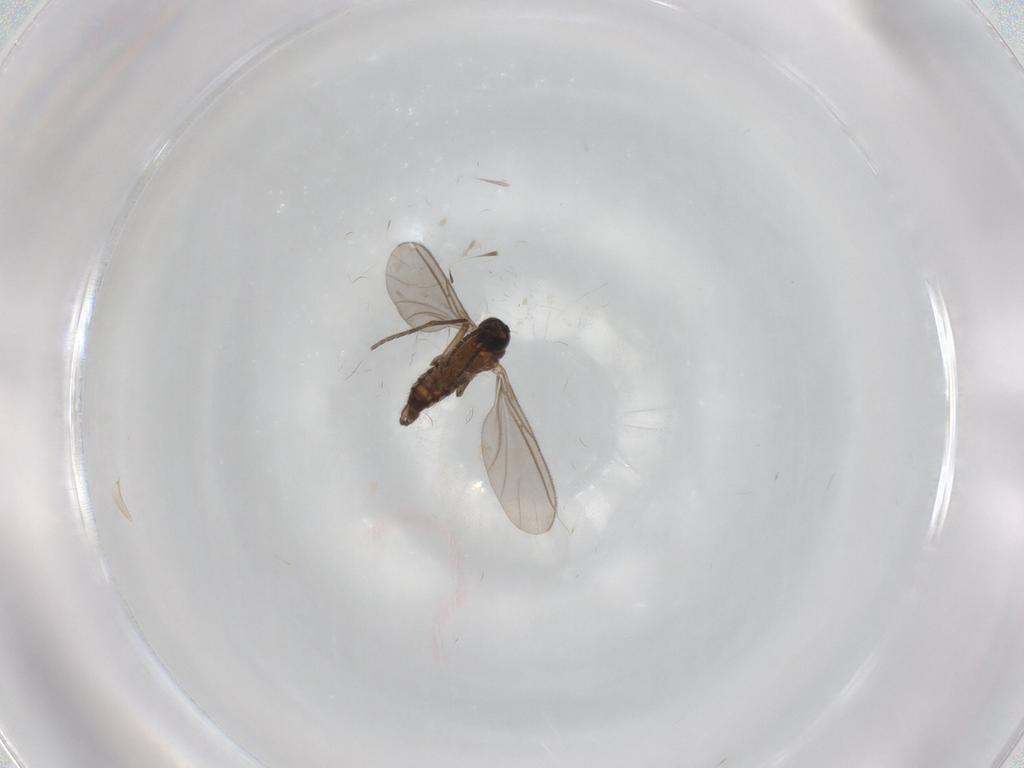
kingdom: Animalia
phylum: Arthropoda
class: Insecta
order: Diptera
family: Sciaridae
